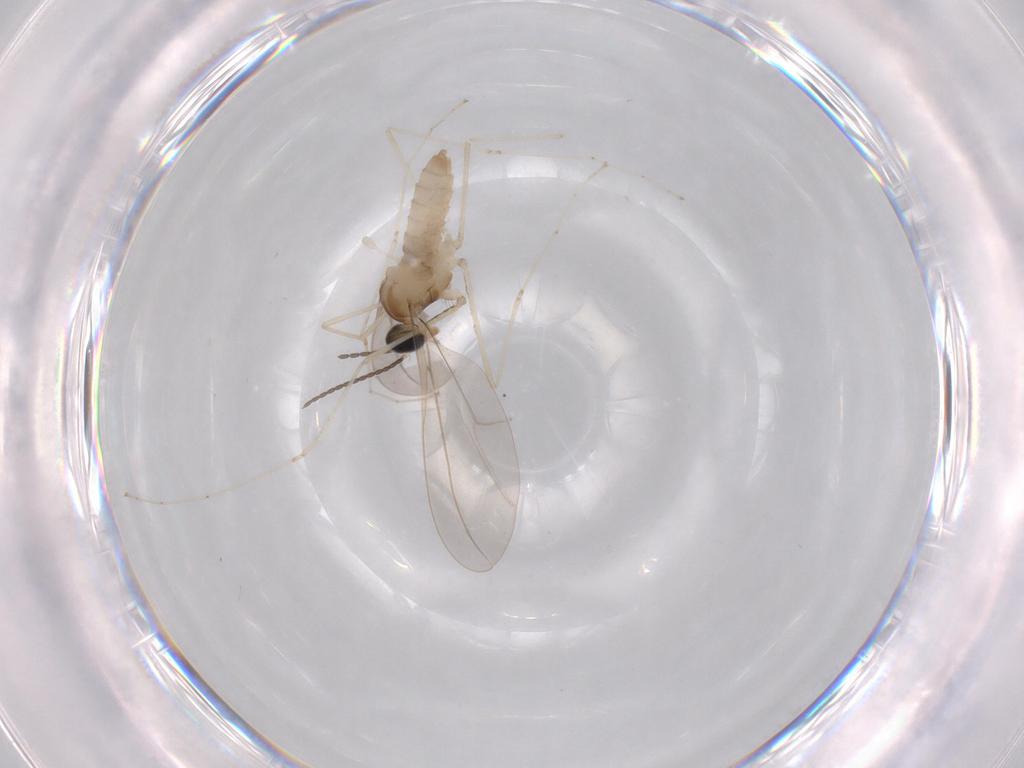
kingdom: Animalia
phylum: Arthropoda
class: Insecta
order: Diptera
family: Cecidomyiidae
